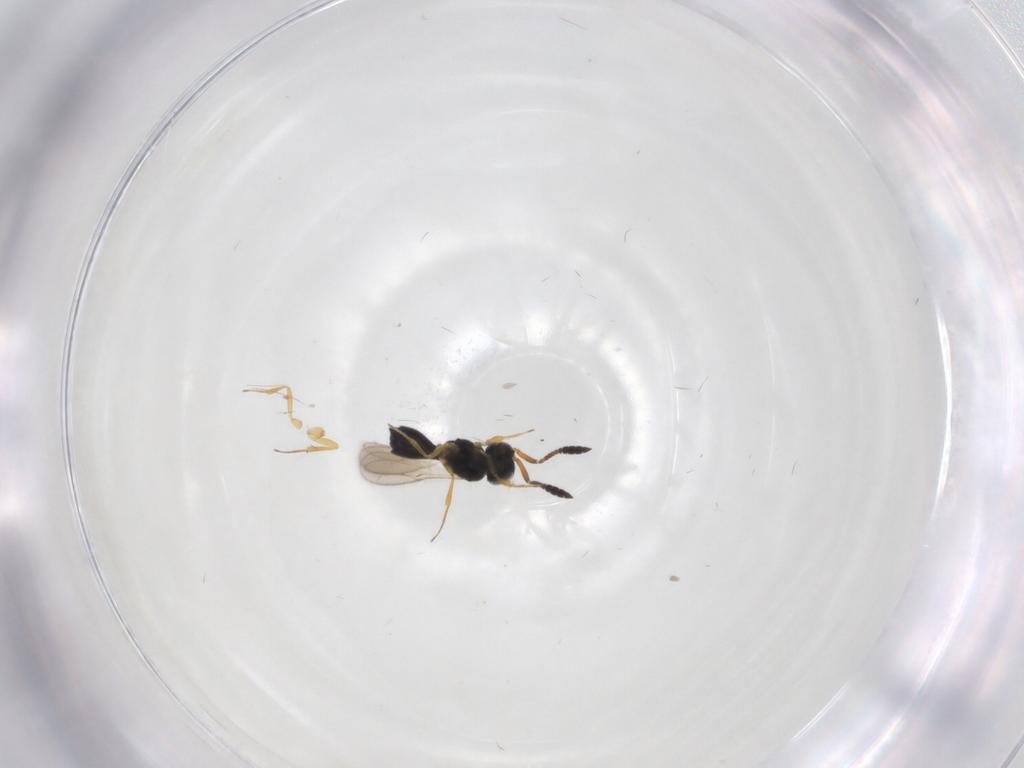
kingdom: Animalia
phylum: Arthropoda
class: Insecta
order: Hymenoptera
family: Scelionidae
